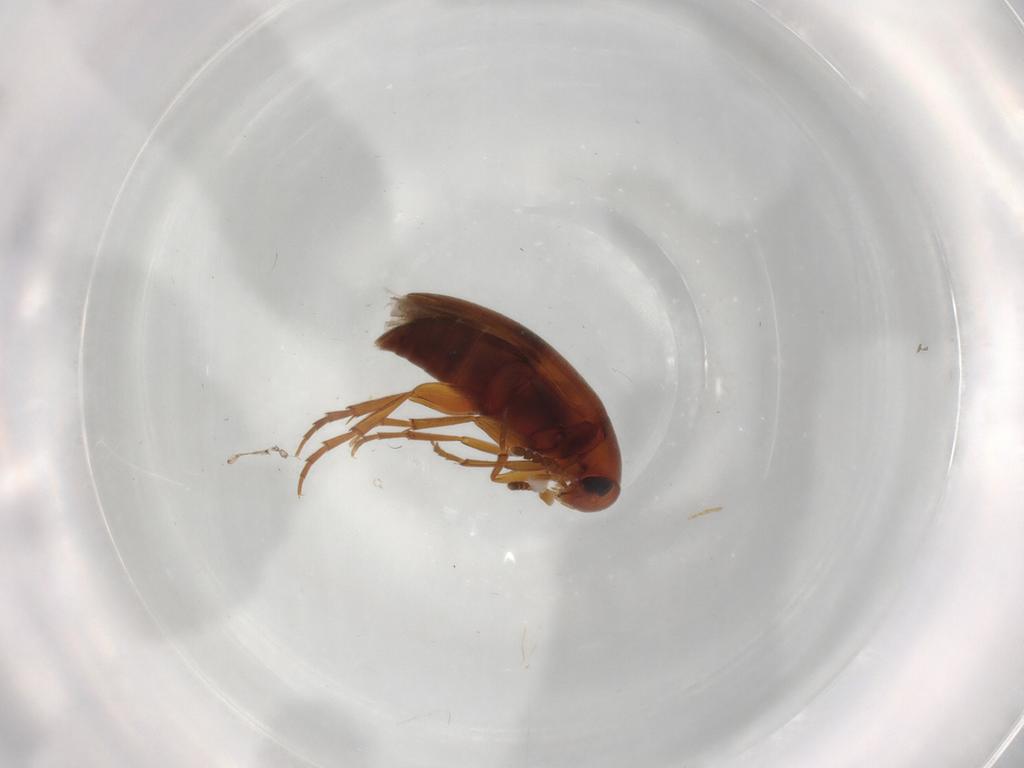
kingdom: Animalia
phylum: Arthropoda
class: Insecta
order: Coleoptera
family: Scraptiidae
